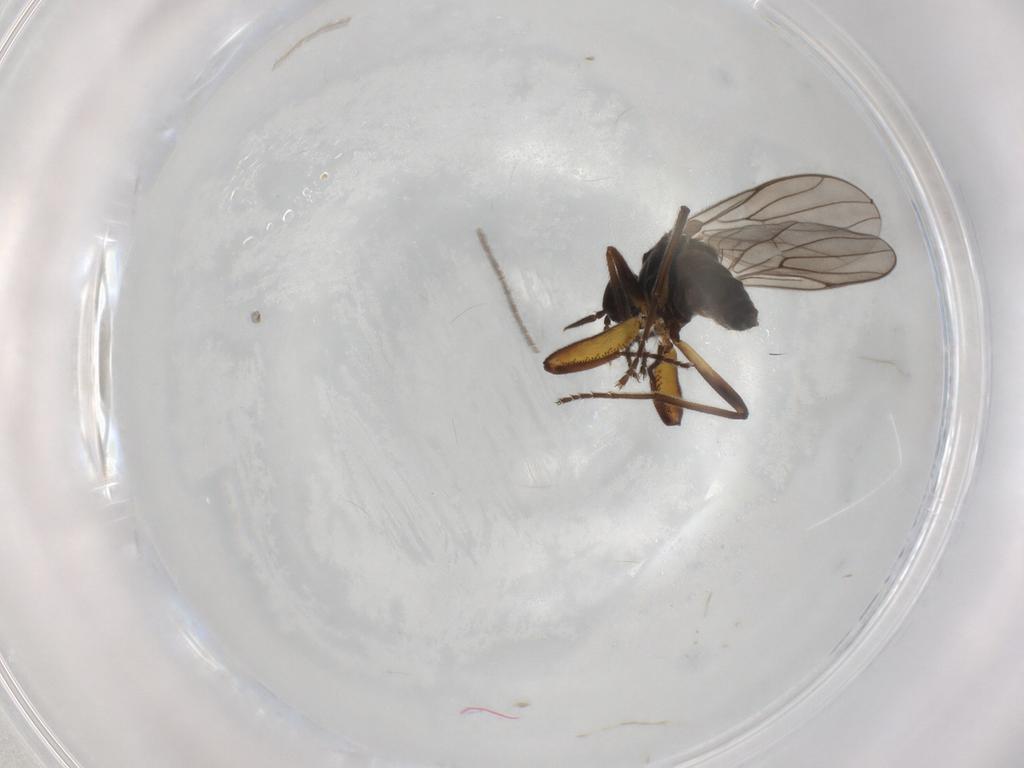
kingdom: Animalia
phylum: Arthropoda
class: Insecta
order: Diptera
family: Hybotidae
